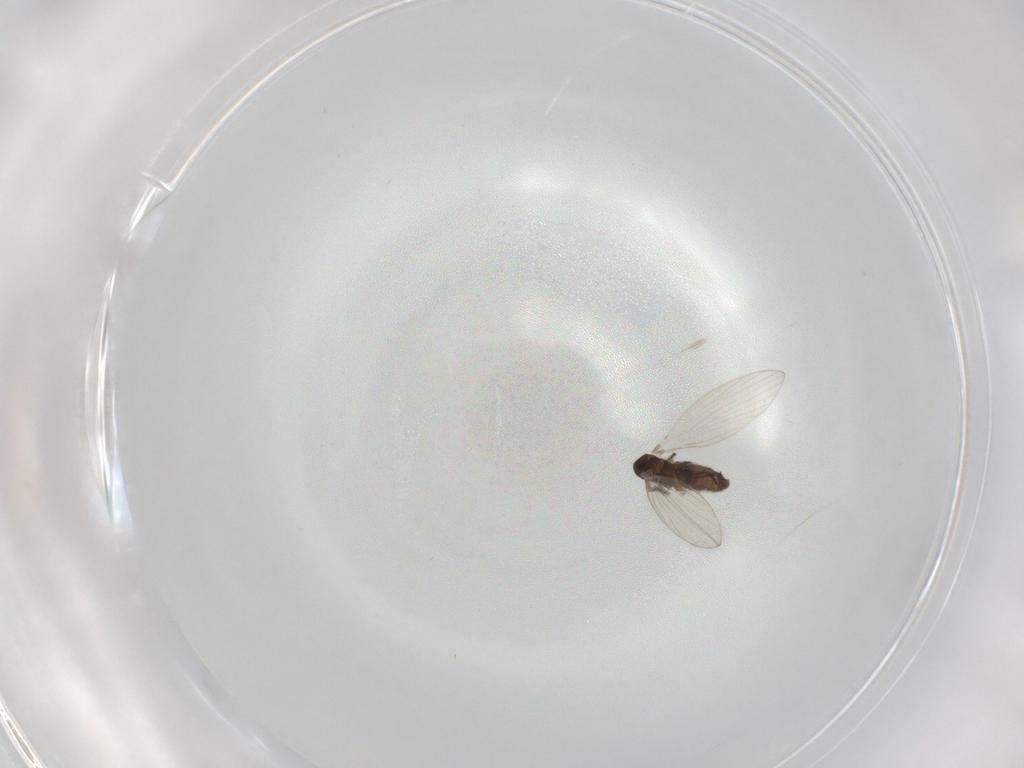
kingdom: Animalia
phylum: Arthropoda
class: Insecta
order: Diptera
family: Psychodidae
